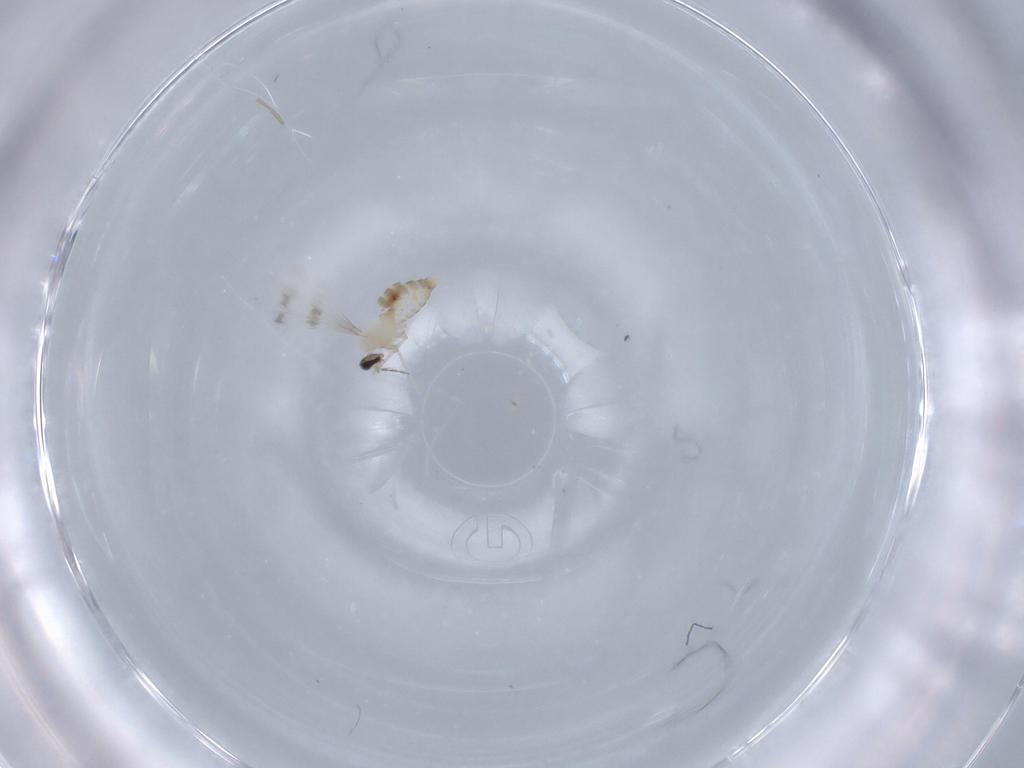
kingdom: Animalia
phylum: Arthropoda
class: Insecta
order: Diptera
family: Cecidomyiidae
